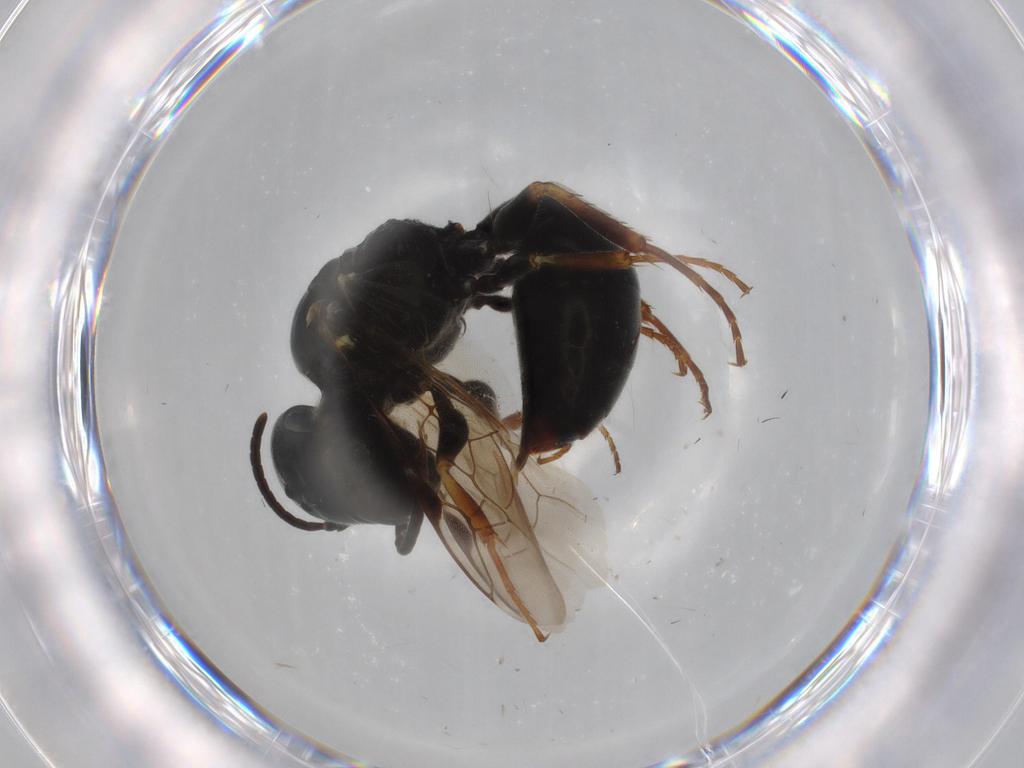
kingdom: Animalia
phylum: Arthropoda
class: Insecta
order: Hymenoptera
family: Crabronidae
